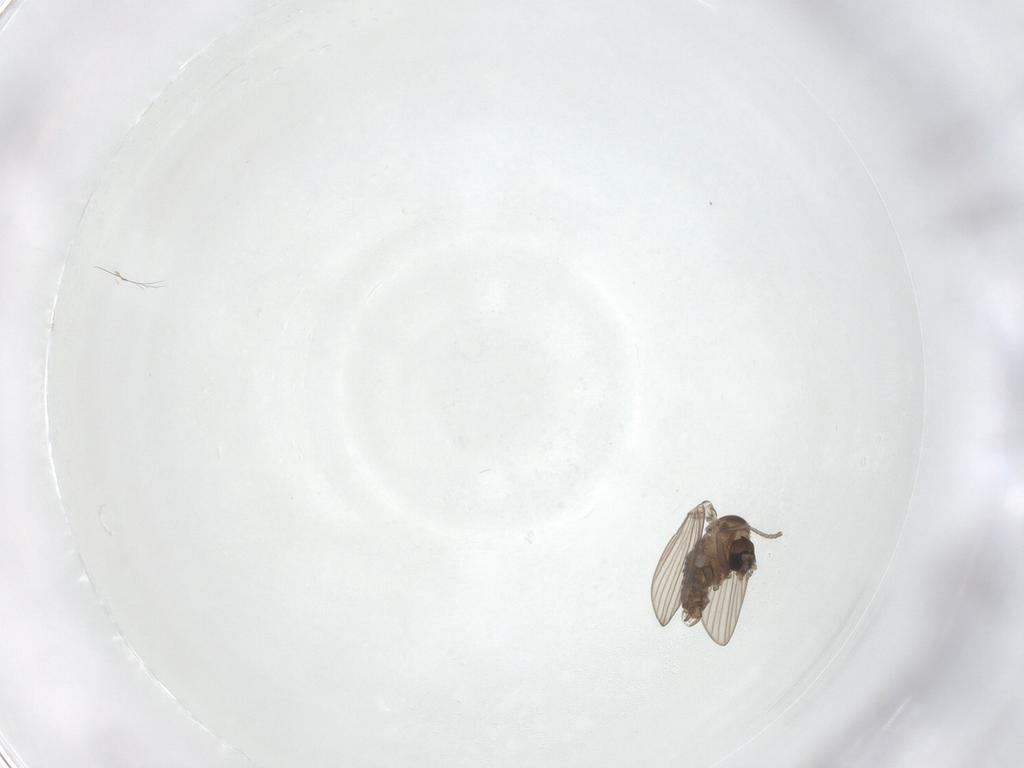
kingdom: Animalia
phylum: Arthropoda
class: Insecta
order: Diptera
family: Psychodidae
